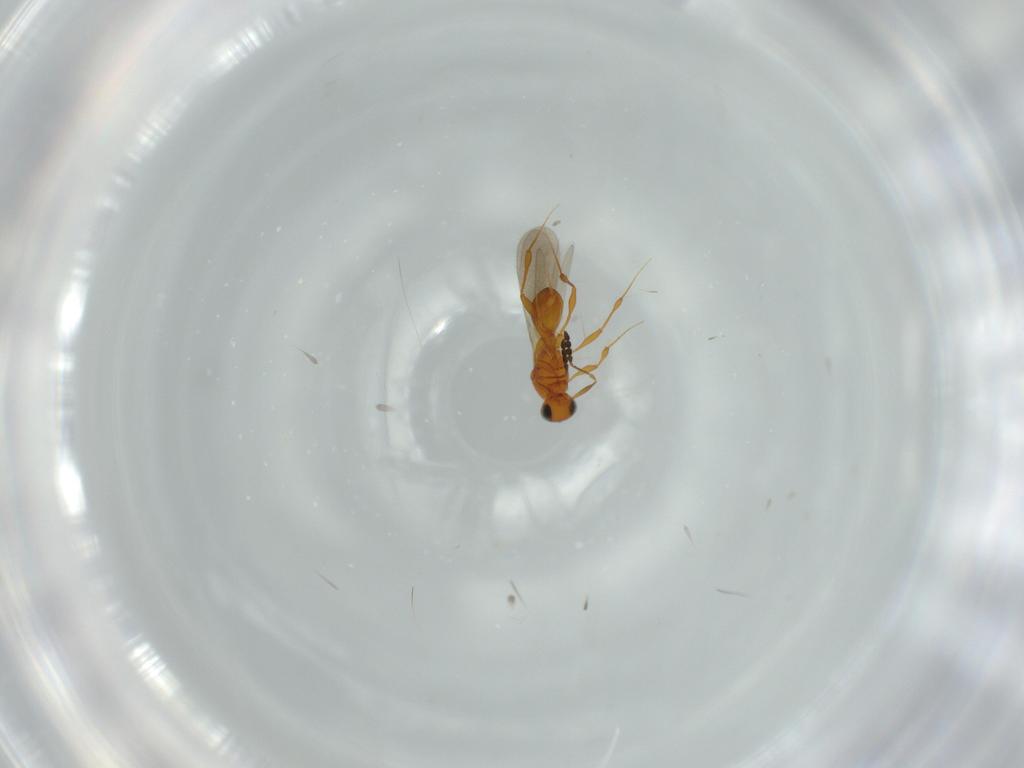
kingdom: Animalia
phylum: Arthropoda
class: Insecta
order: Hymenoptera
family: Platygastridae
